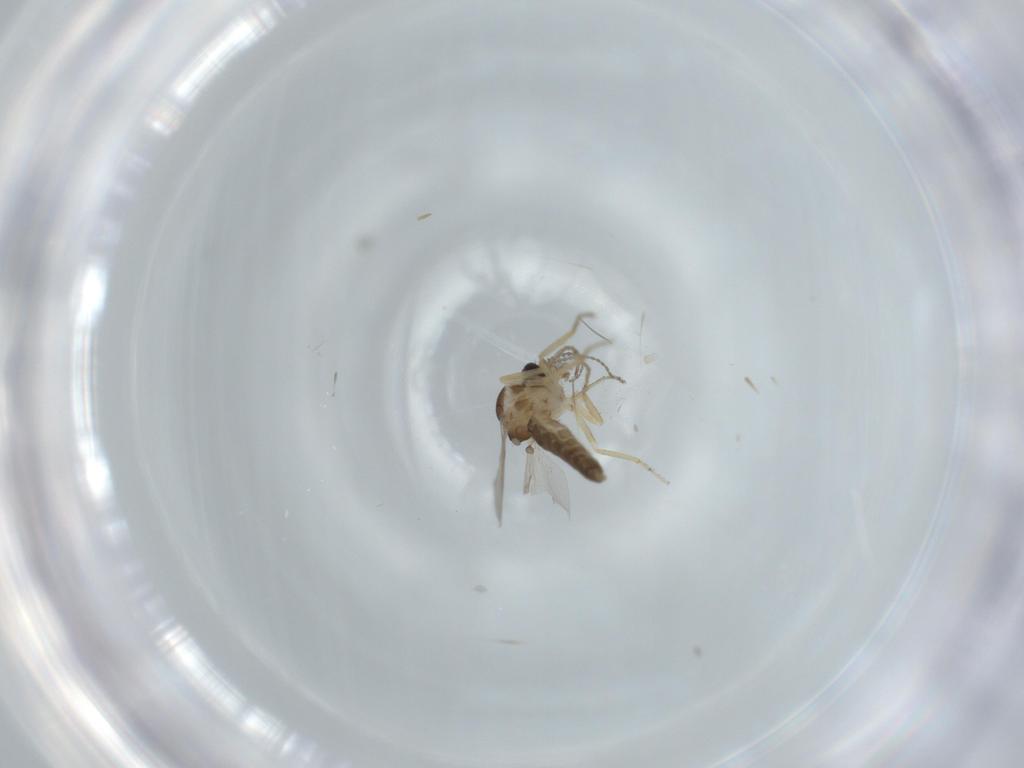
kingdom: Animalia
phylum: Arthropoda
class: Insecta
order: Diptera
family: Ceratopogonidae
